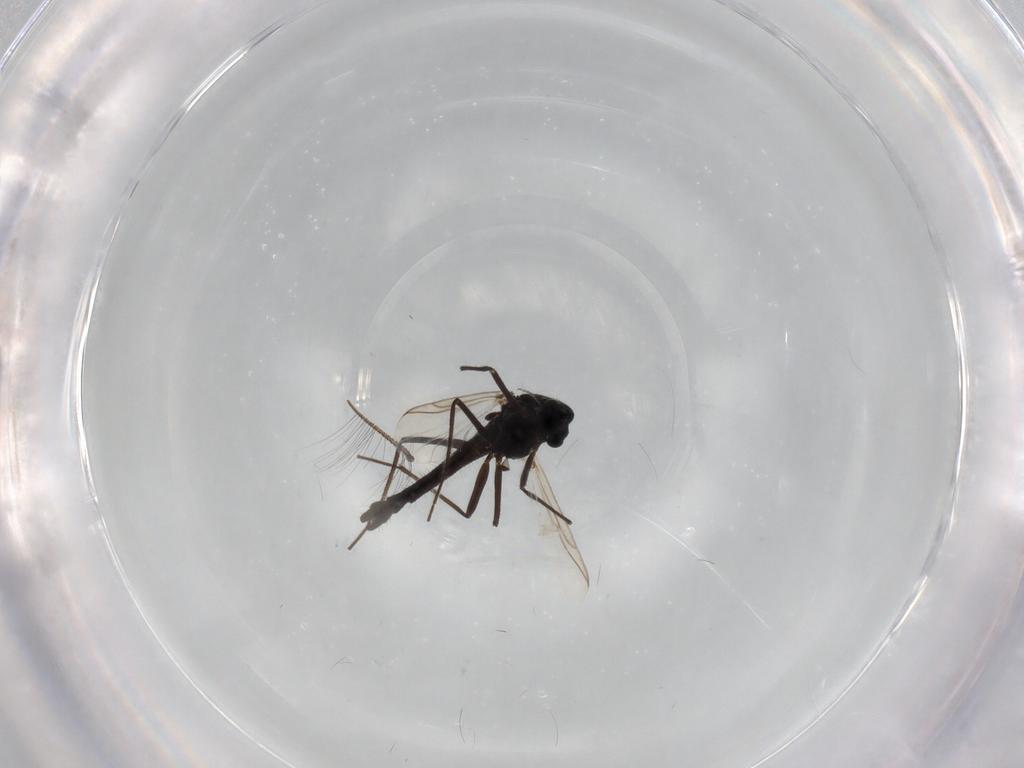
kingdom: Animalia
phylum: Arthropoda
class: Insecta
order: Diptera
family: Chironomidae
